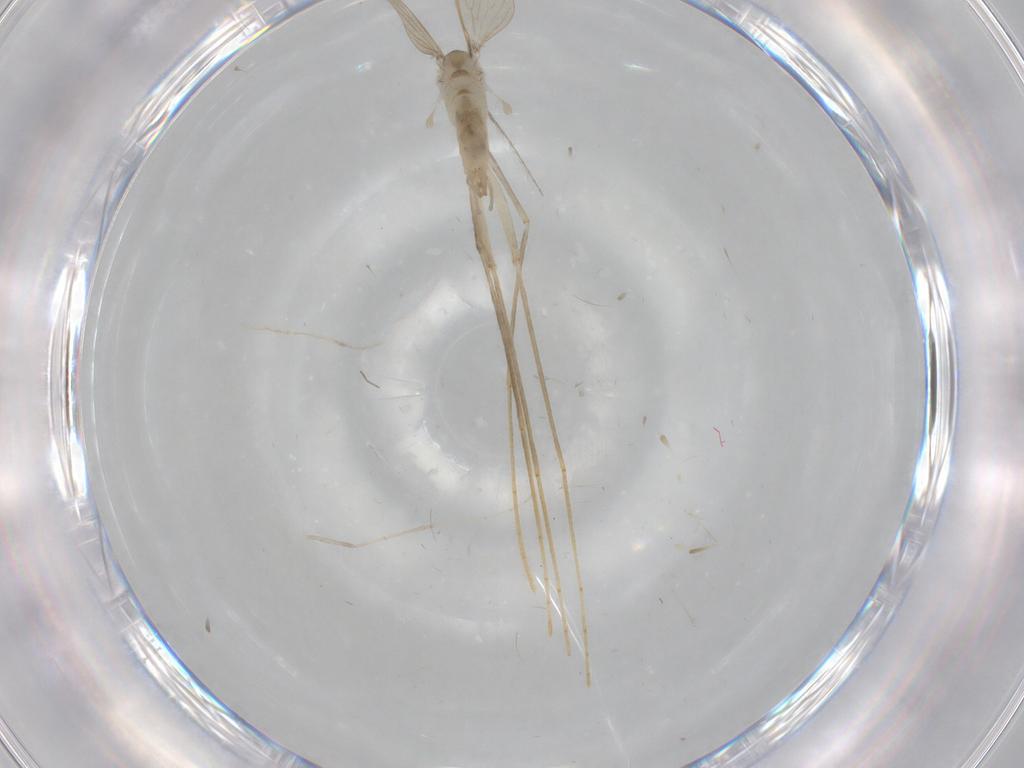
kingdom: Animalia
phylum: Arthropoda
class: Insecta
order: Diptera
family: Psychodidae
